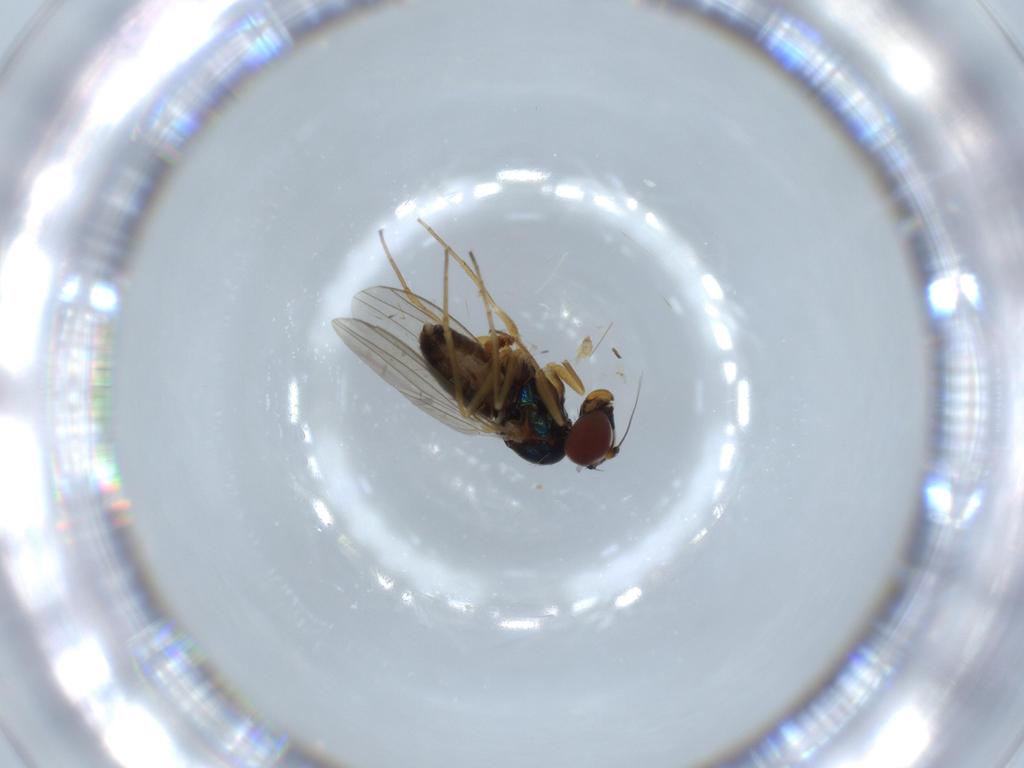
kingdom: Animalia
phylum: Arthropoda
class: Insecta
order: Diptera
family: Dolichopodidae
